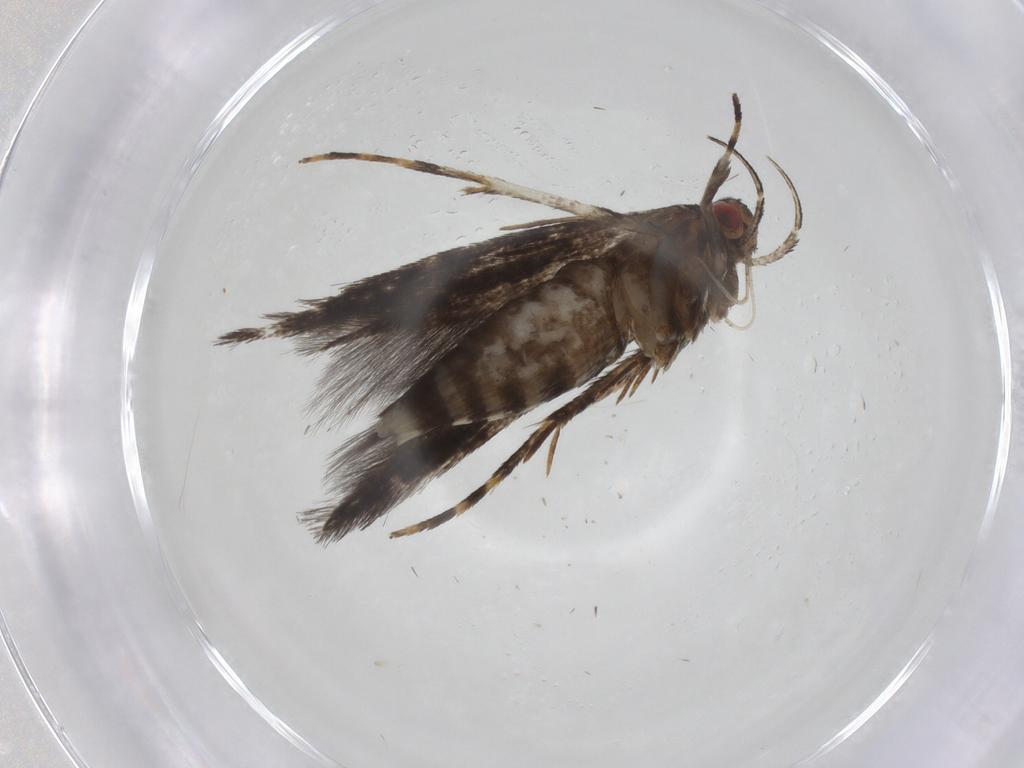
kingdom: Animalia
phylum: Arthropoda
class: Insecta
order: Lepidoptera
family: Cosmopterigidae
